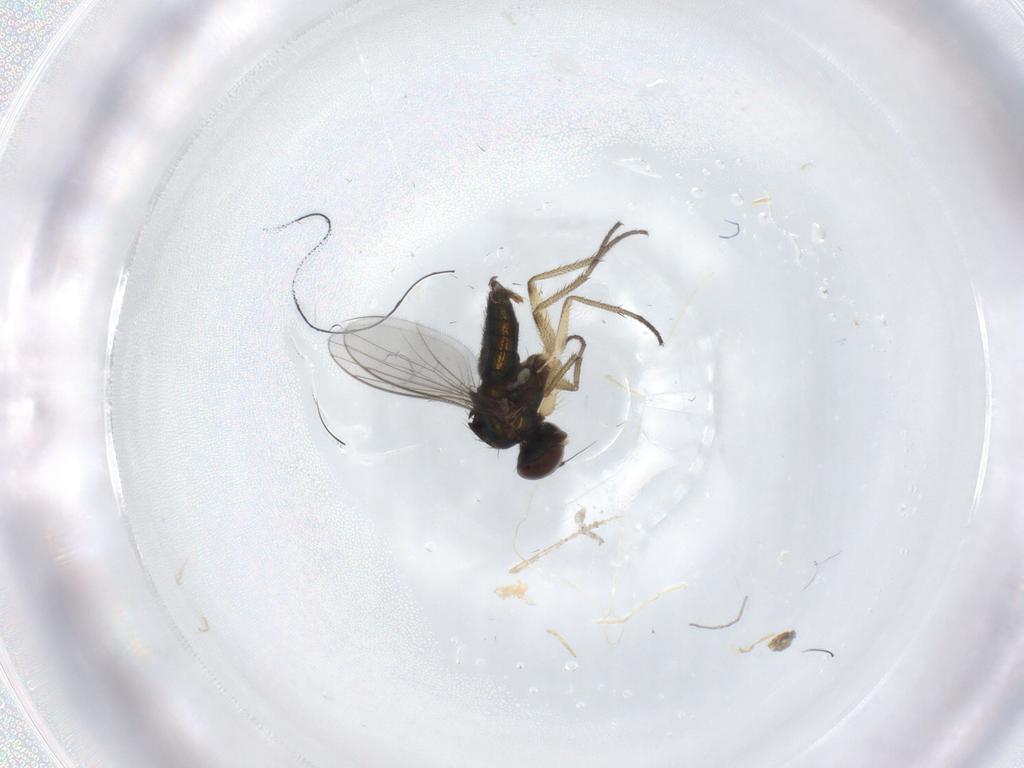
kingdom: Animalia
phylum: Arthropoda
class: Insecta
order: Diptera
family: Dolichopodidae
